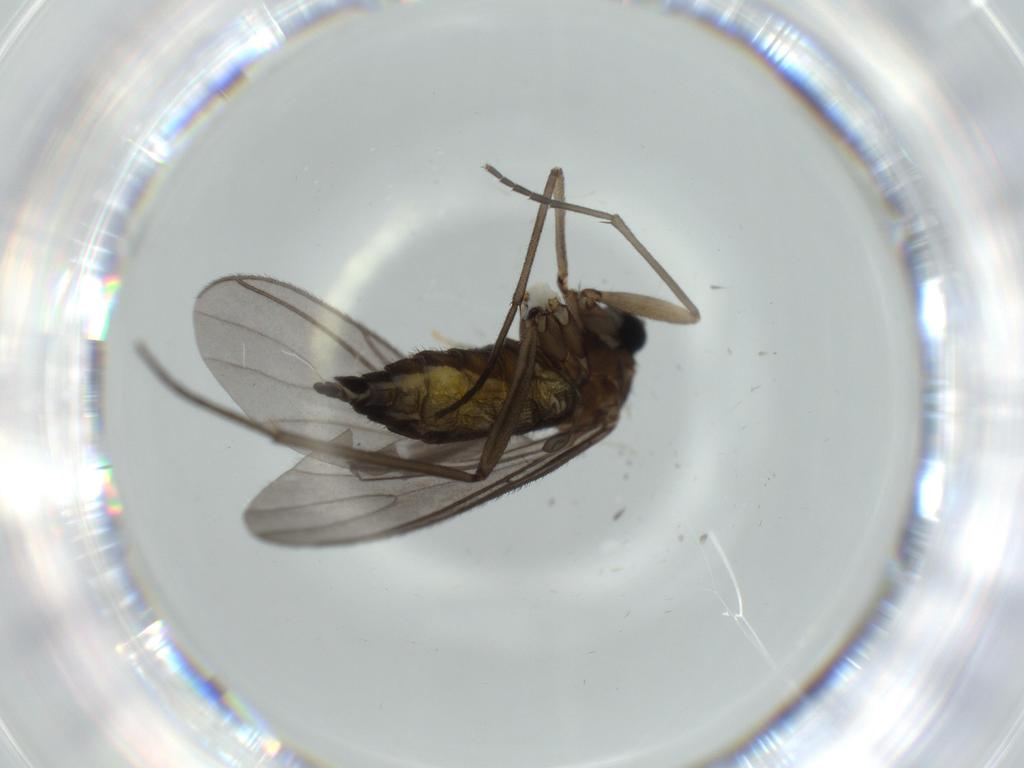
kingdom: Animalia
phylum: Arthropoda
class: Insecta
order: Diptera
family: Sciaridae
